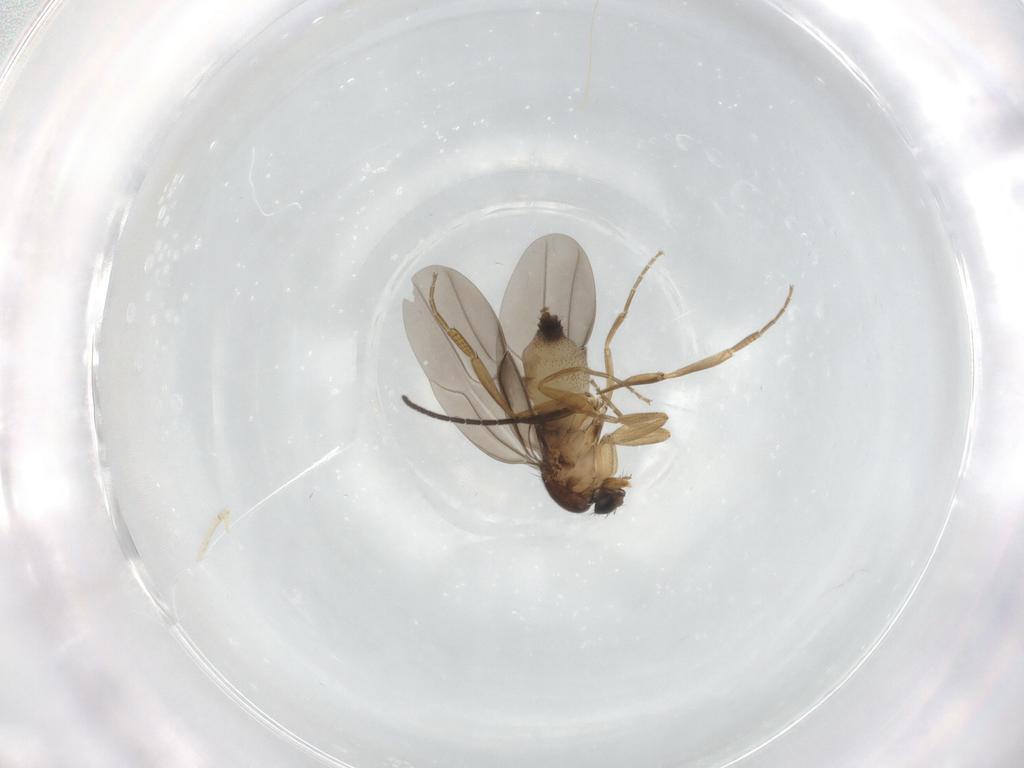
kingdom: Animalia
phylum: Arthropoda
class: Insecta
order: Diptera
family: Phoridae
